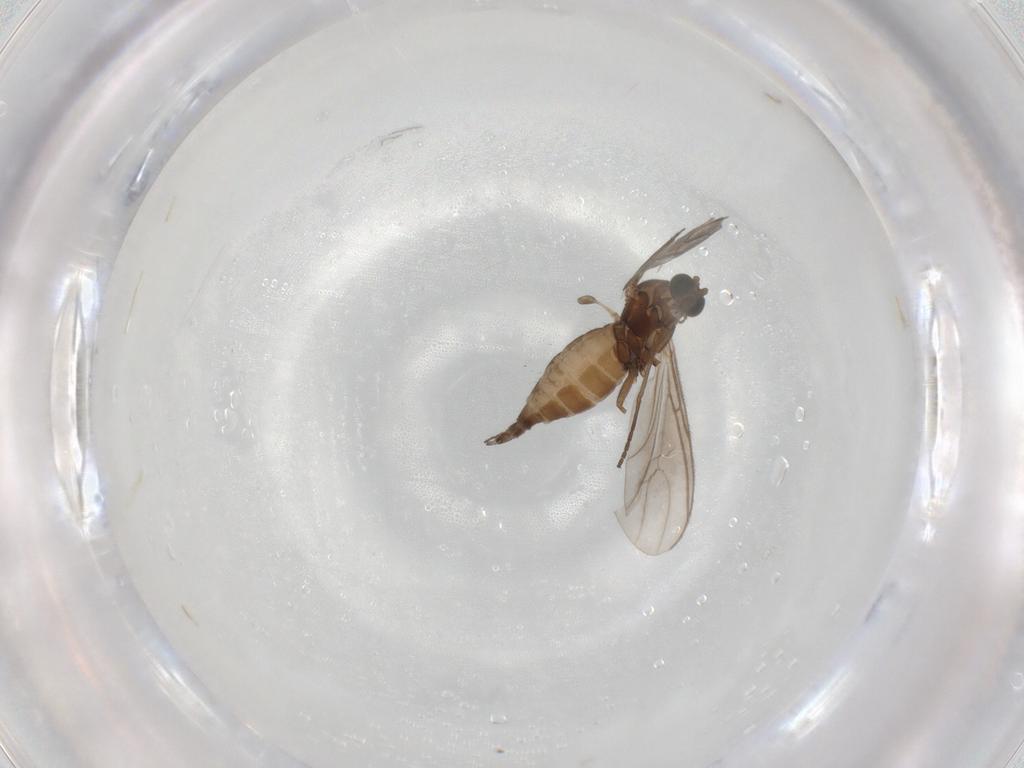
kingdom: Animalia
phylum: Arthropoda
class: Insecta
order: Diptera
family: Sciaridae
